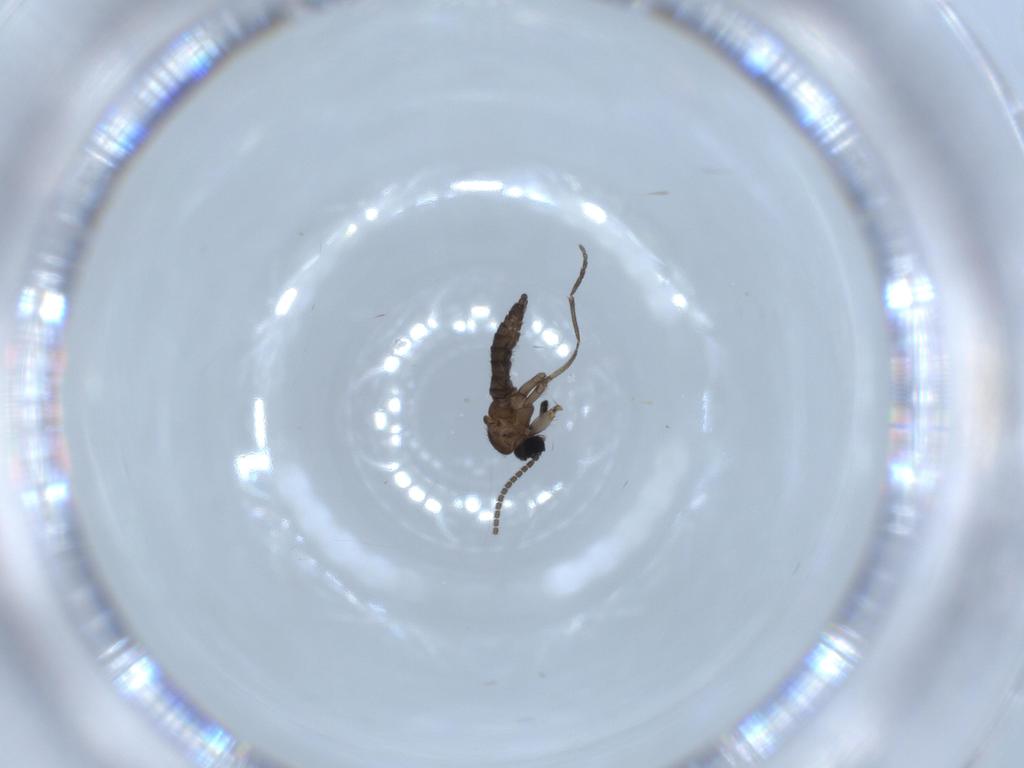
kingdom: Animalia
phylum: Arthropoda
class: Insecta
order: Diptera
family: Sciaridae
